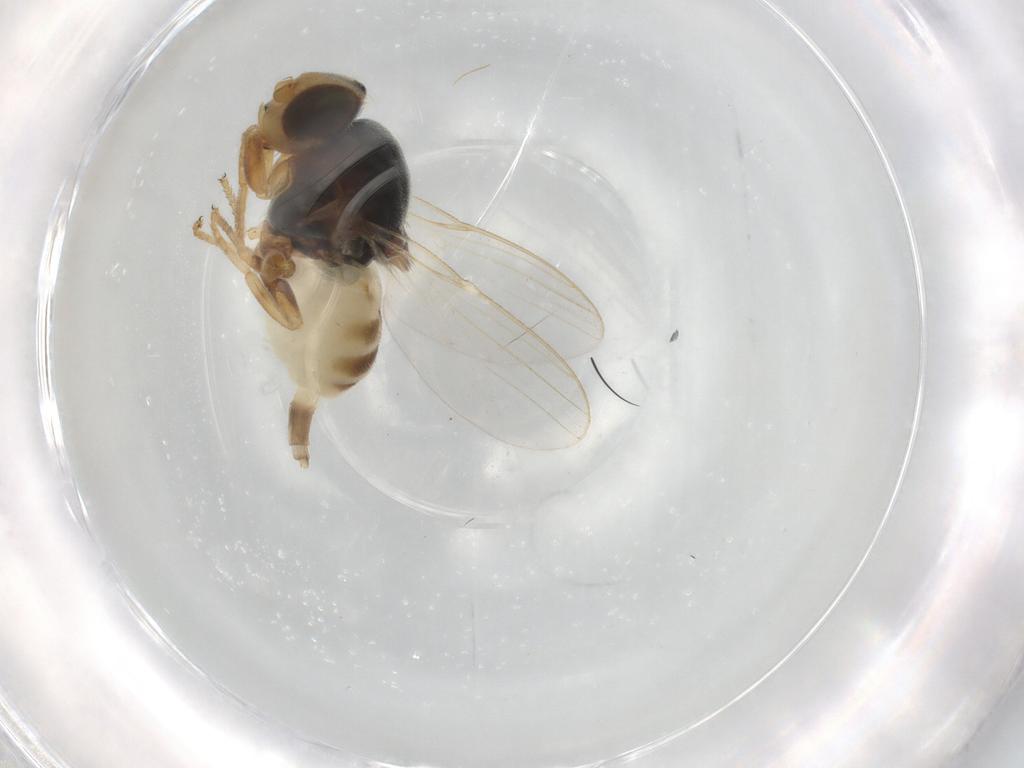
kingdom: Animalia
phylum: Arthropoda
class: Insecta
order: Diptera
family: Chloropidae
